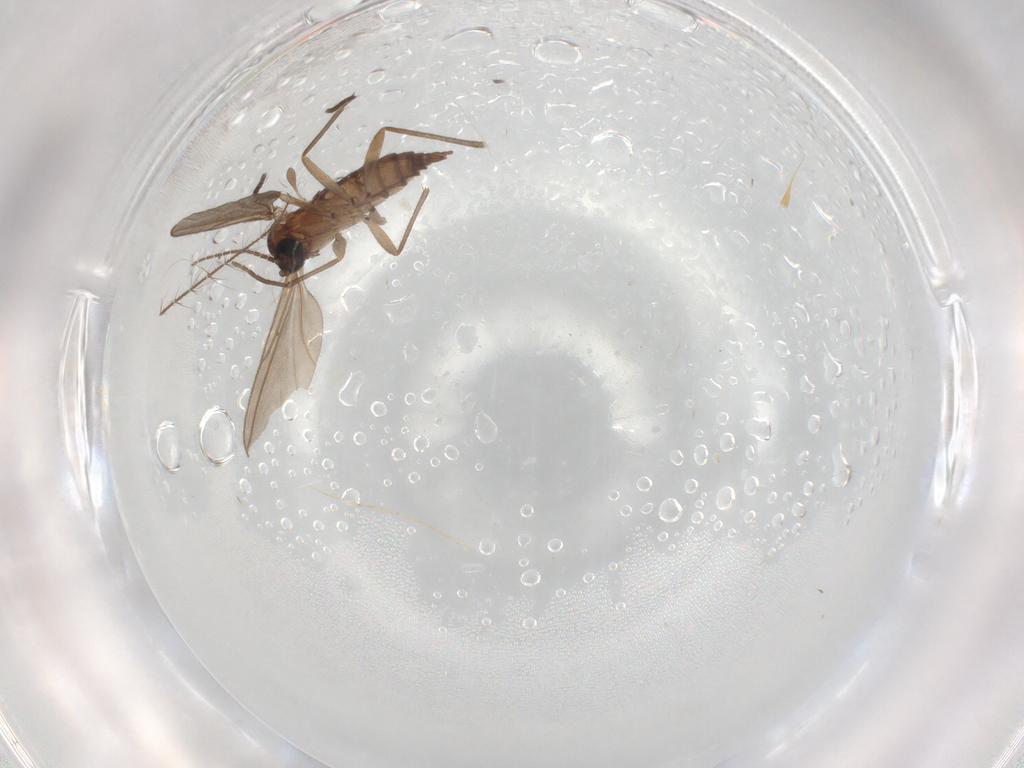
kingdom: Animalia
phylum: Arthropoda
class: Insecta
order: Diptera
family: Sciaridae
